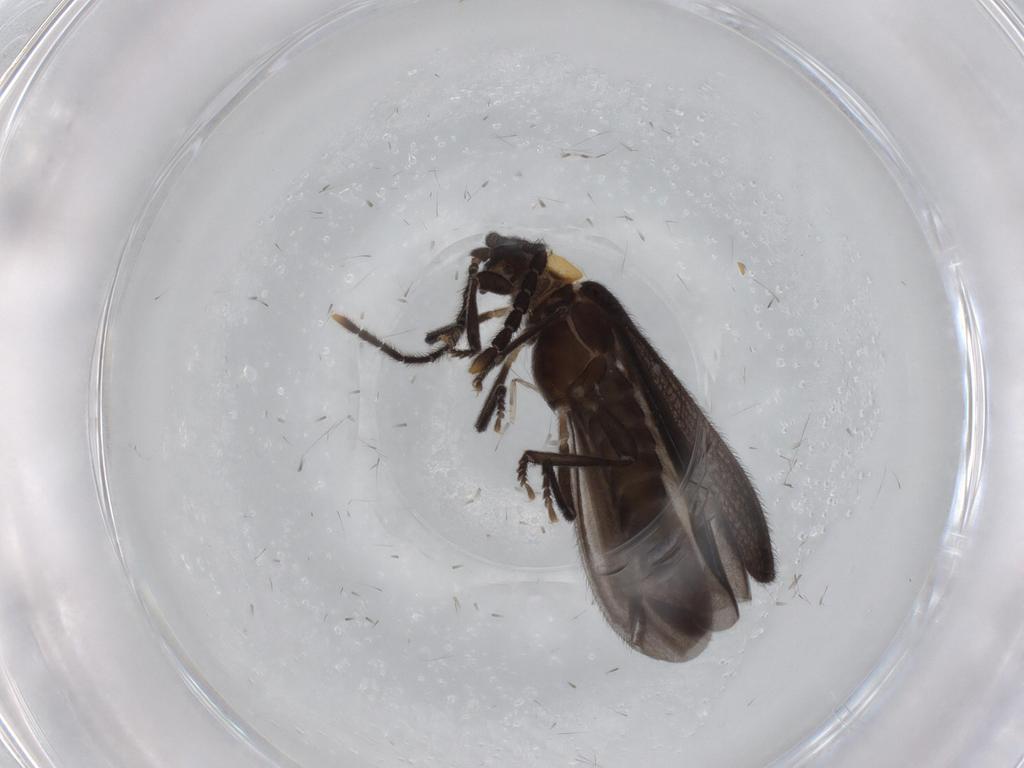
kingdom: Animalia
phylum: Arthropoda
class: Insecta
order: Coleoptera
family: Lycidae
